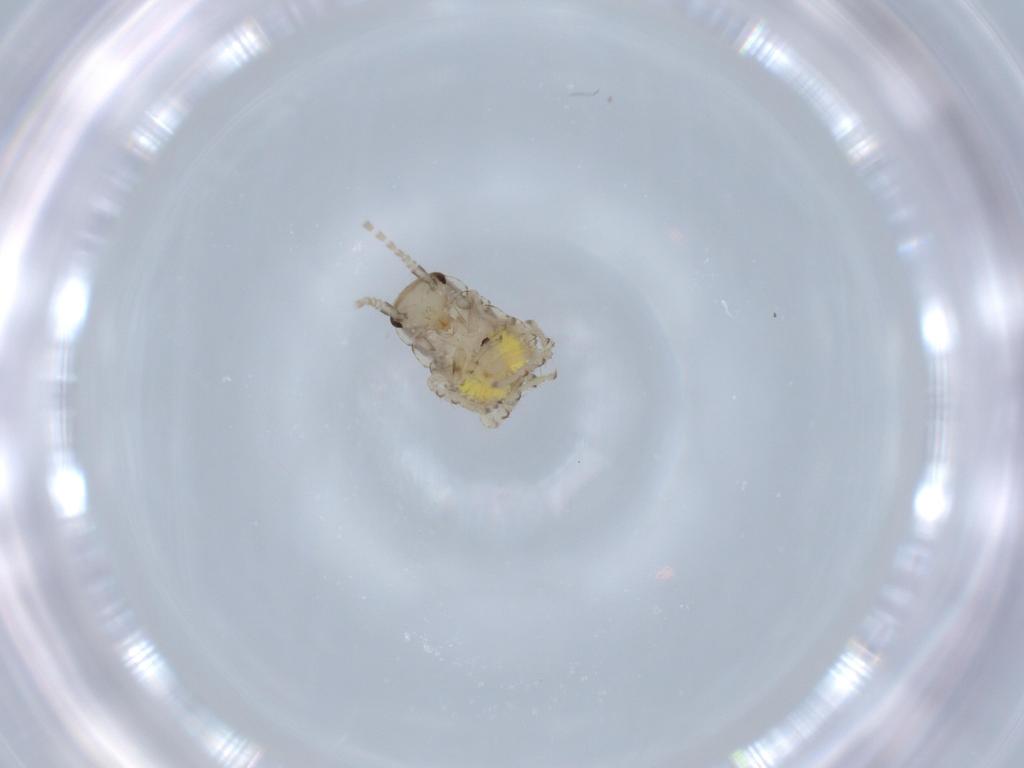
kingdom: Animalia
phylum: Arthropoda
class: Insecta
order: Blattodea
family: Ectobiidae
